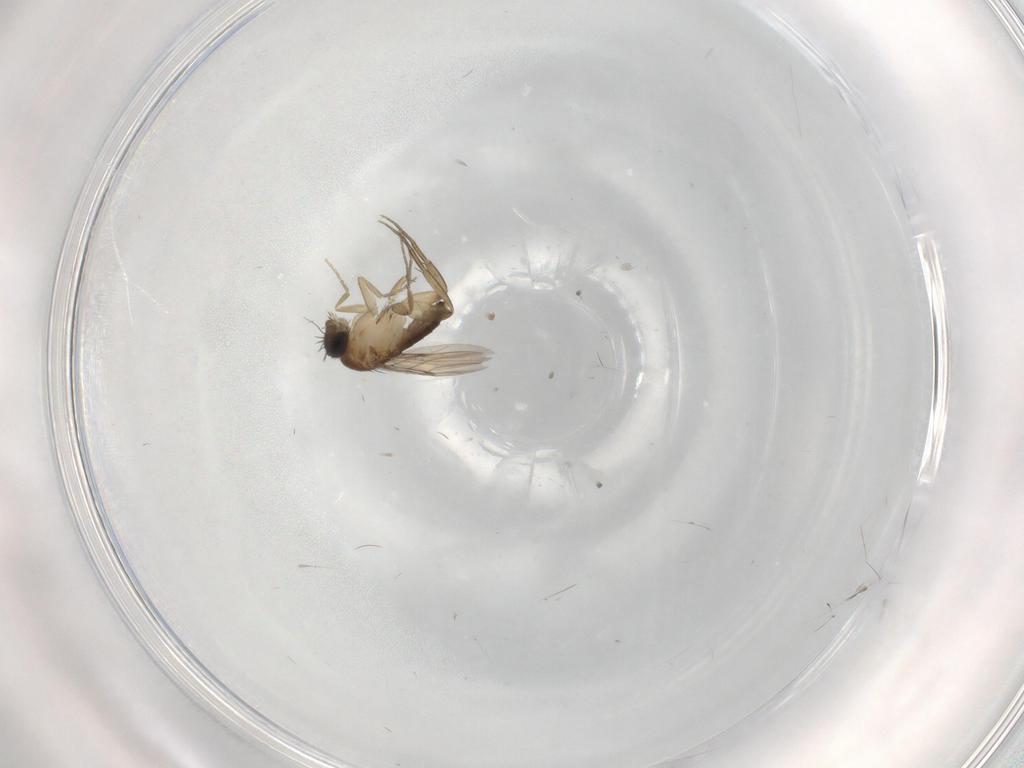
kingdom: Animalia
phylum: Arthropoda
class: Insecta
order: Diptera
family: Phoridae
